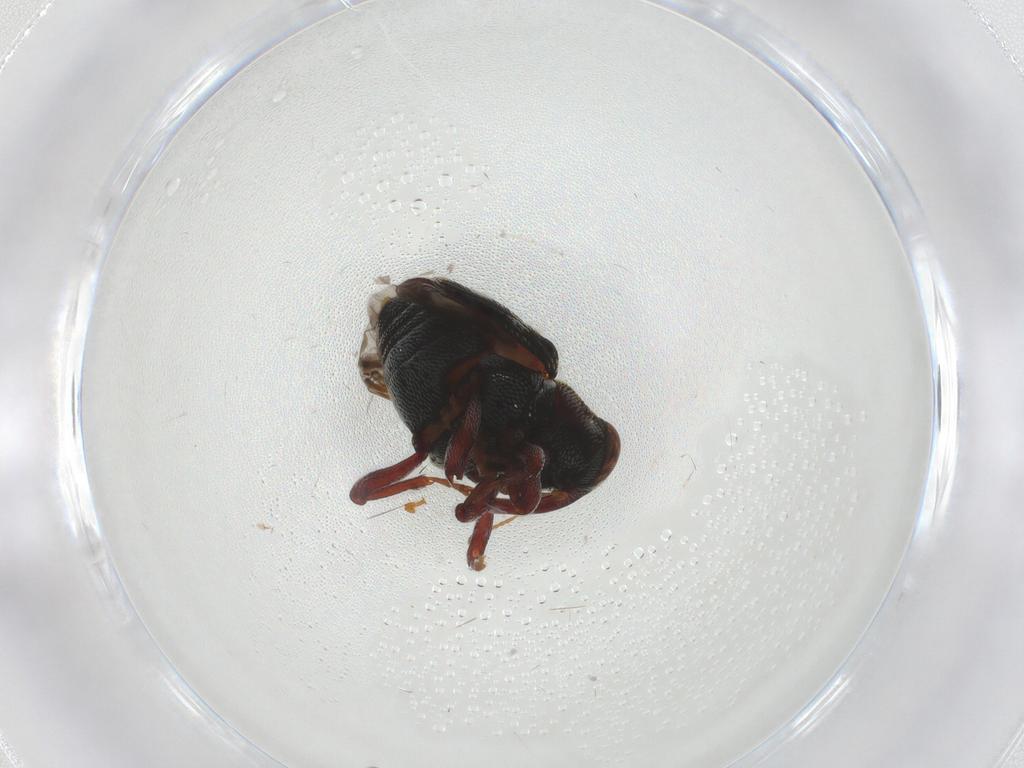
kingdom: Animalia
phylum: Arthropoda
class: Insecta
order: Coleoptera
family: Curculionidae
